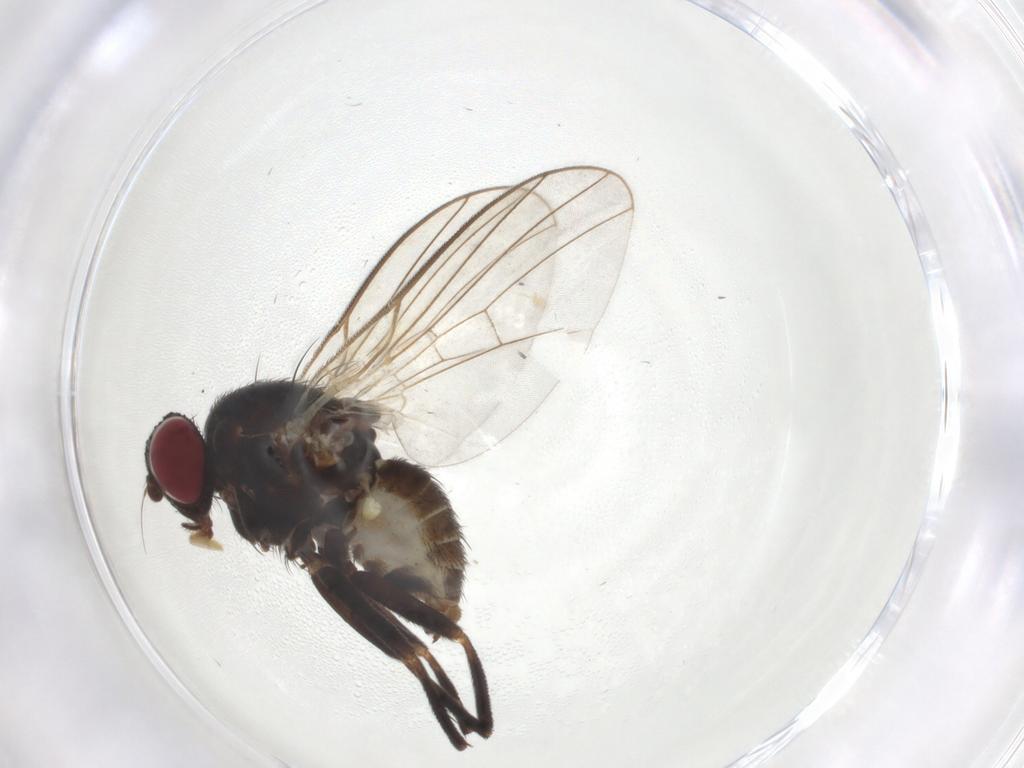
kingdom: Animalia
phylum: Arthropoda
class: Insecta
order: Diptera
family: Agromyzidae
